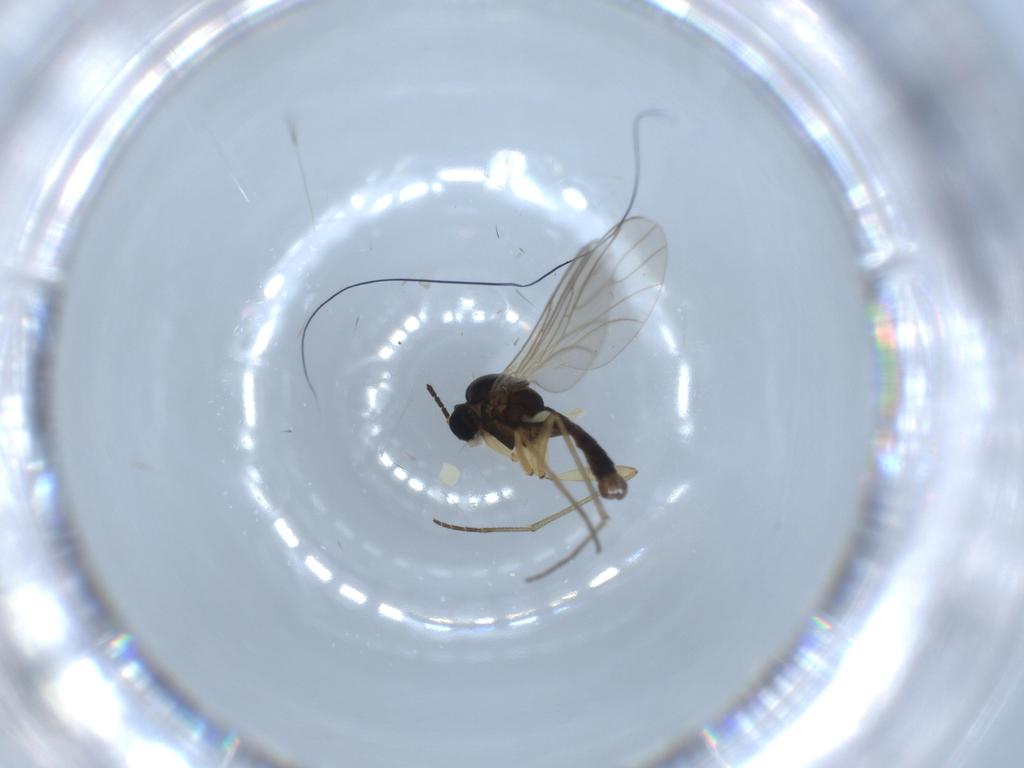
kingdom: Animalia
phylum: Arthropoda
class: Insecta
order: Diptera
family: Sciaridae
